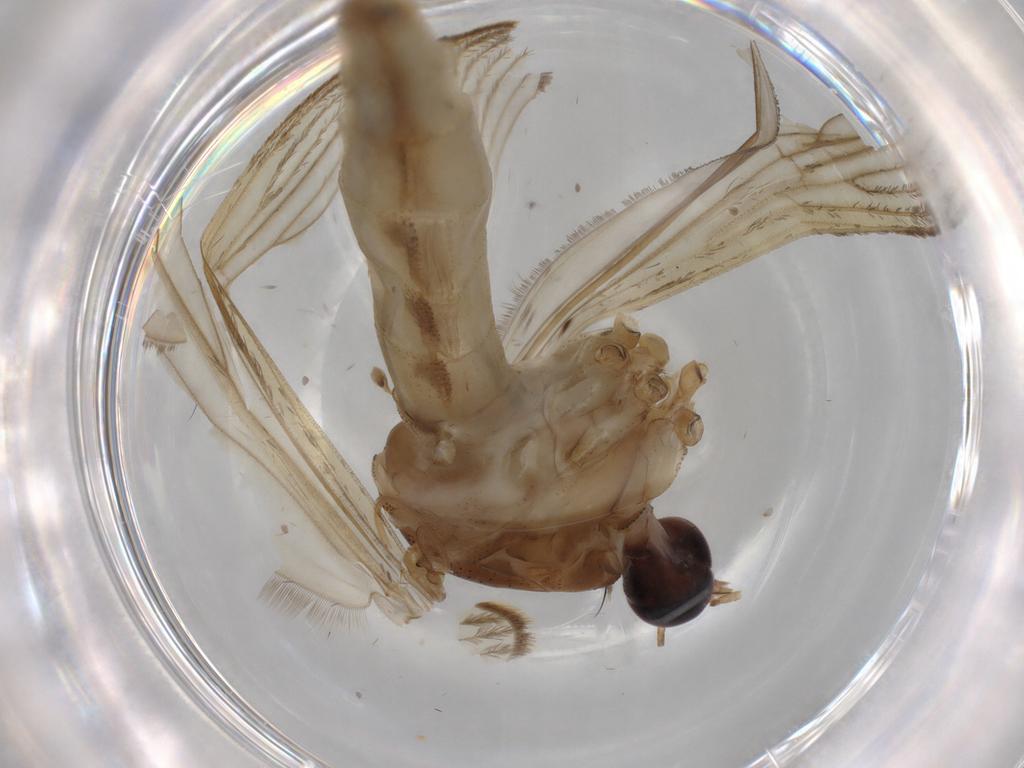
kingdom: Animalia
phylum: Arthropoda
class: Insecta
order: Diptera
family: Culicidae
